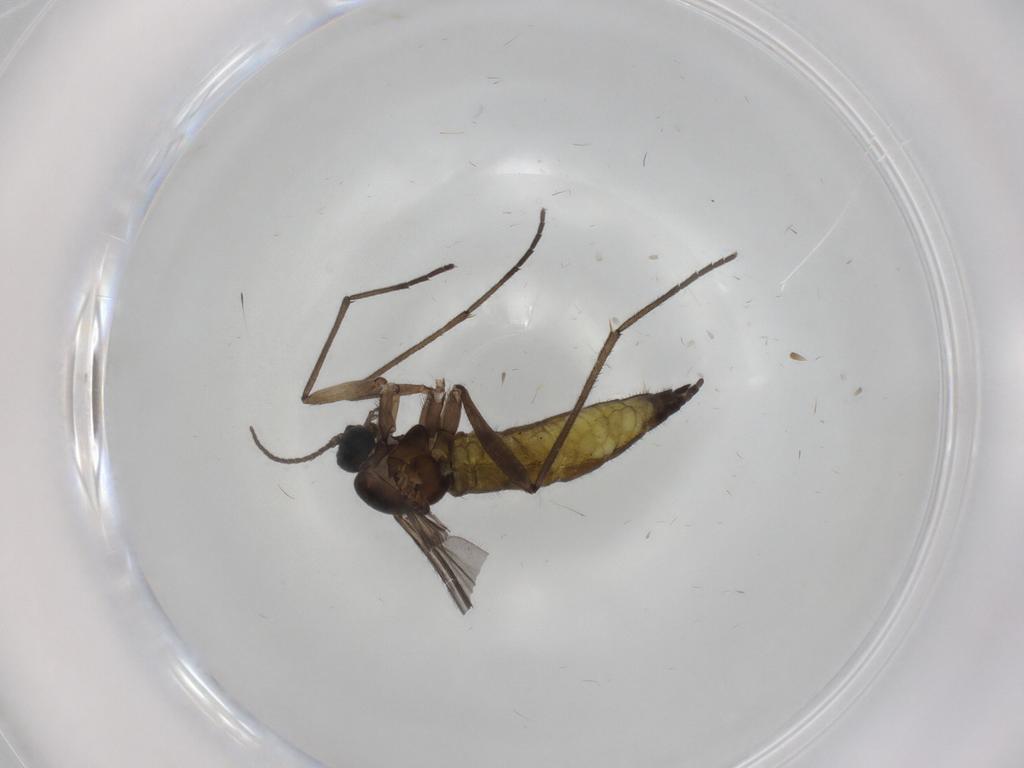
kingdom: Animalia
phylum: Arthropoda
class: Insecta
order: Diptera
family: Sciaridae
